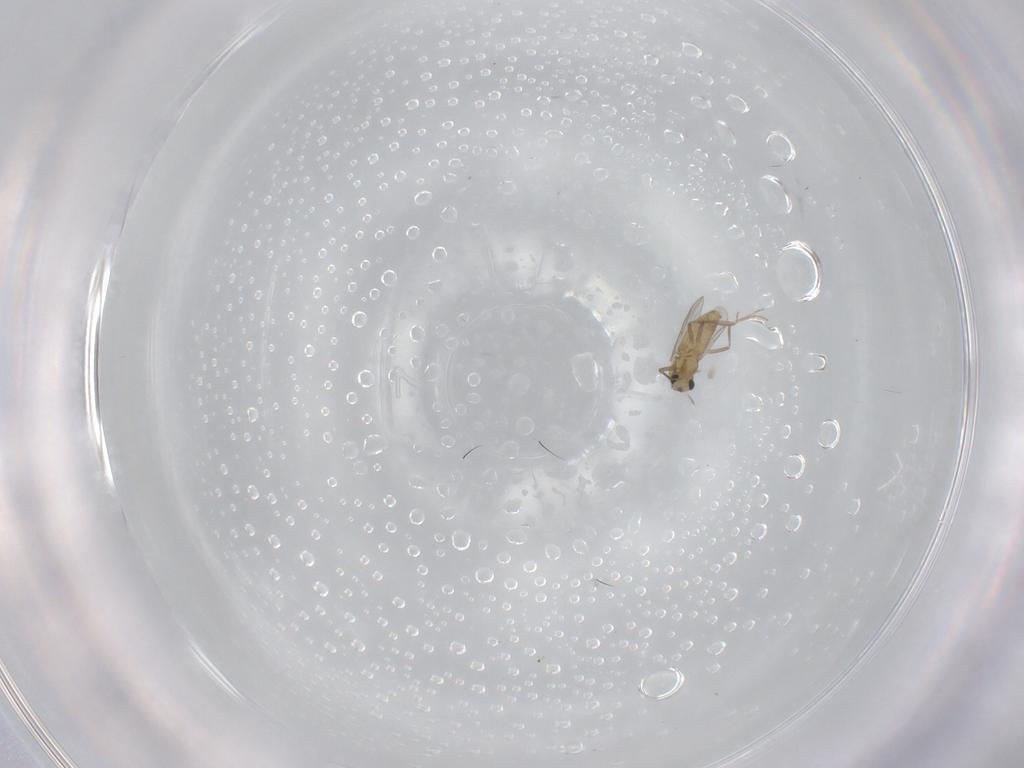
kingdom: Animalia
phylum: Arthropoda
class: Insecta
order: Diptera
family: Chironomidae
